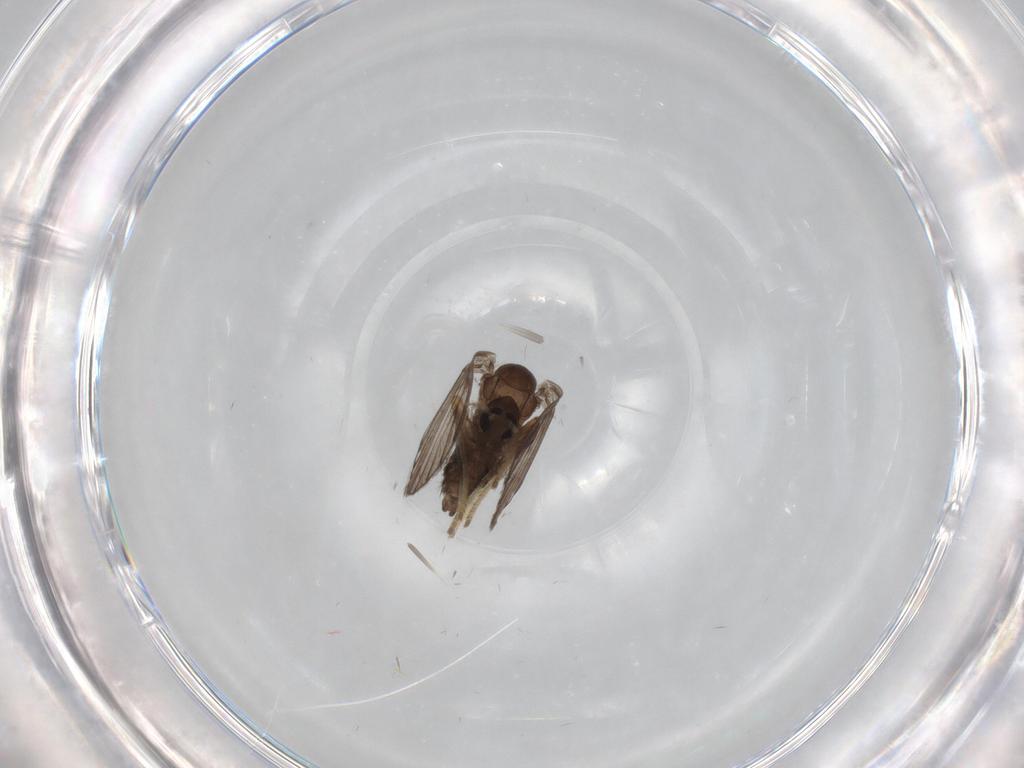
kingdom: Animalia
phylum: Arthropoda
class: Insecta
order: Diptera
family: Psychodidae
